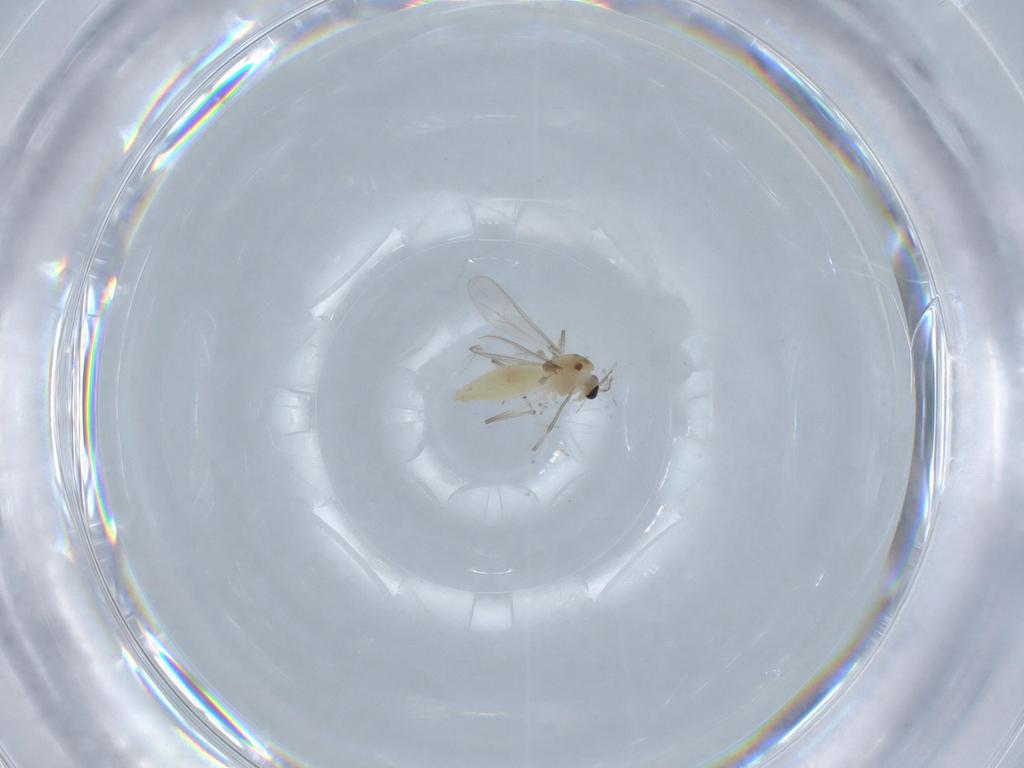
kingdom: Animalia
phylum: Arthropoda
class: Insecta
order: Diptera
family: Chironomidae
